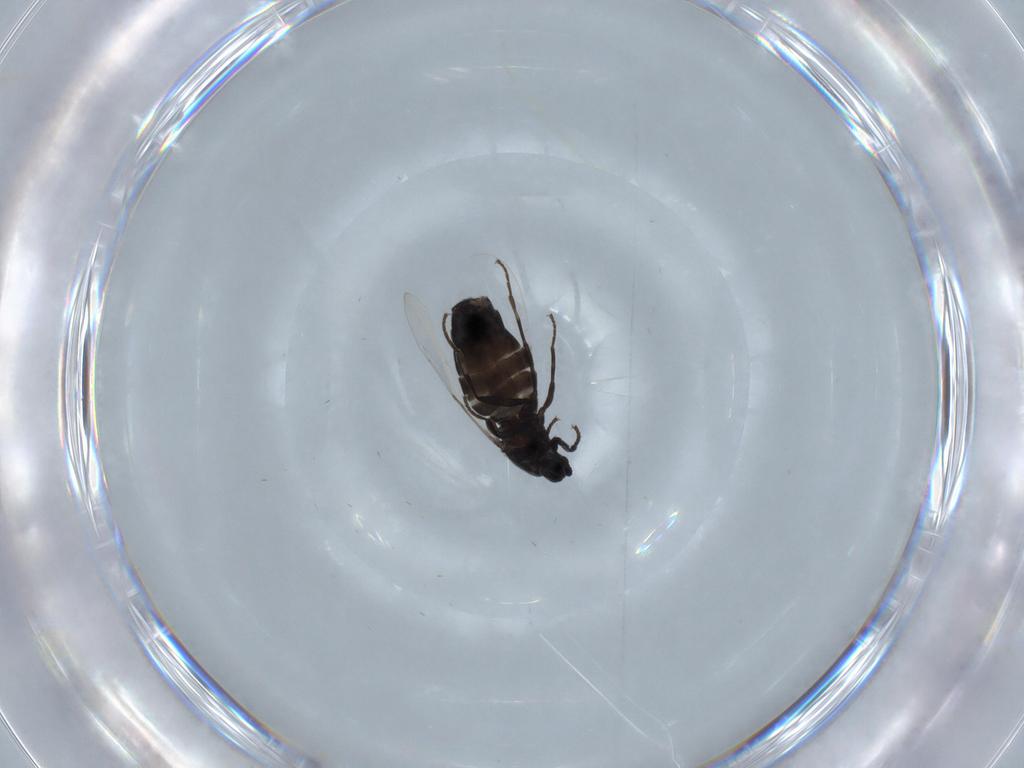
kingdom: Animalia
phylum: Arthropoda
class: Insecta
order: Diptera
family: Scatopsidae
